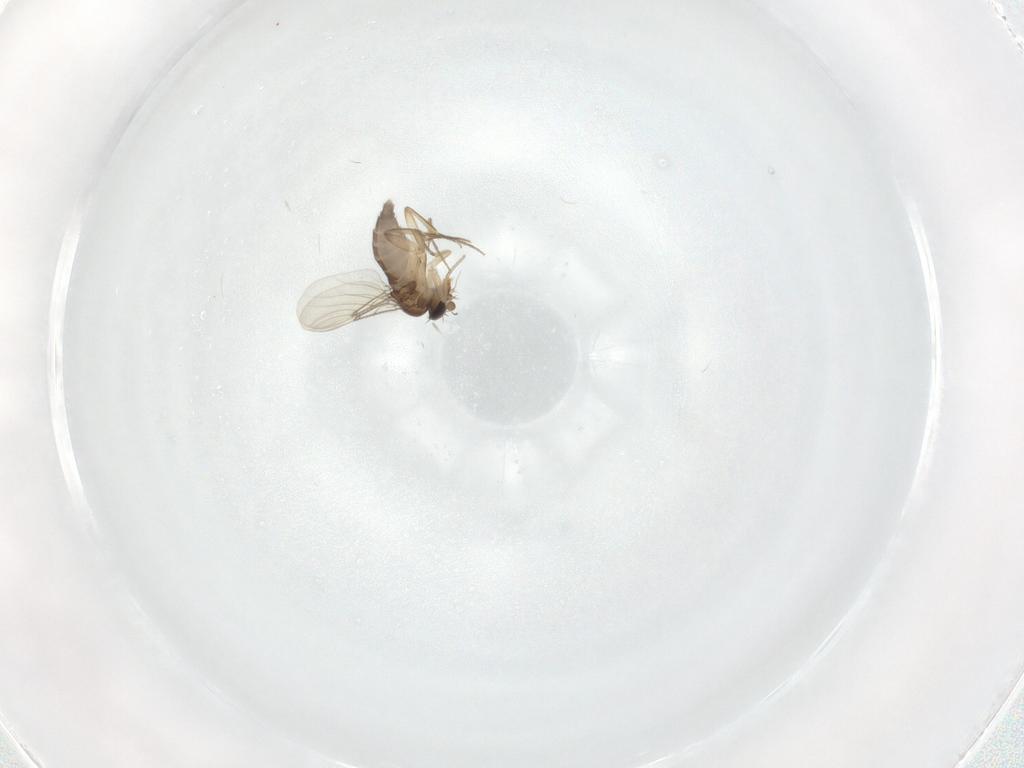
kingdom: Animalia
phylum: Arthropoda
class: Insecta
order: Diptera
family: Phoridae
